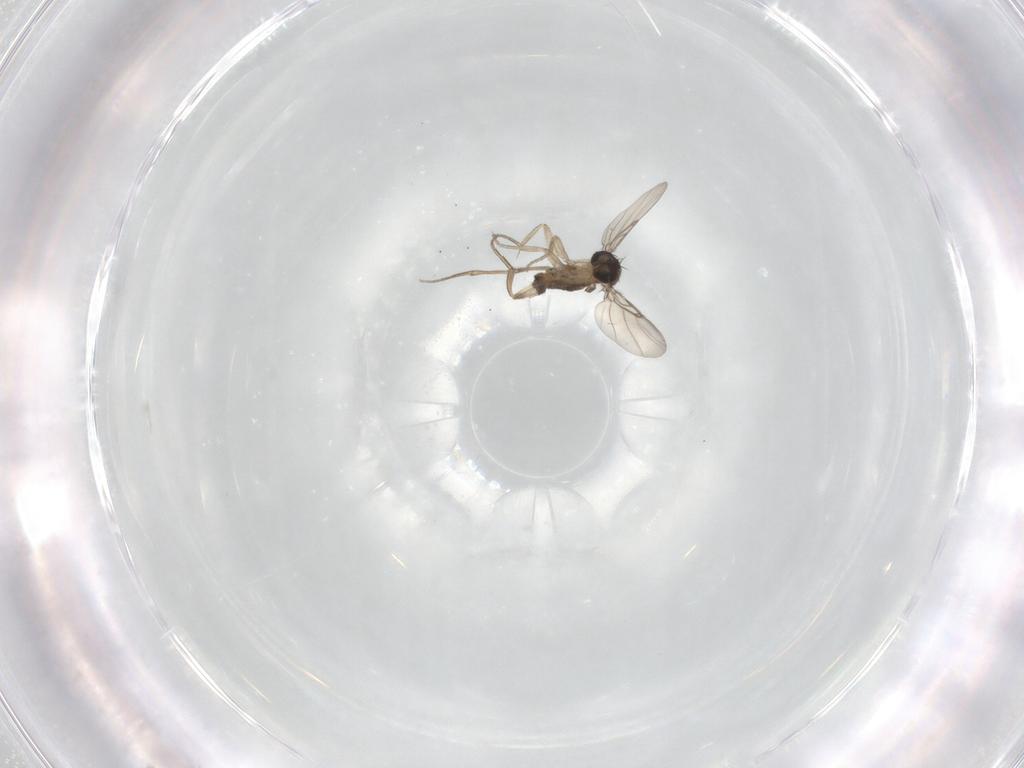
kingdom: Animalia
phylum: Arthropoda
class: Insecta
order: Diptera
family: Phoridae
